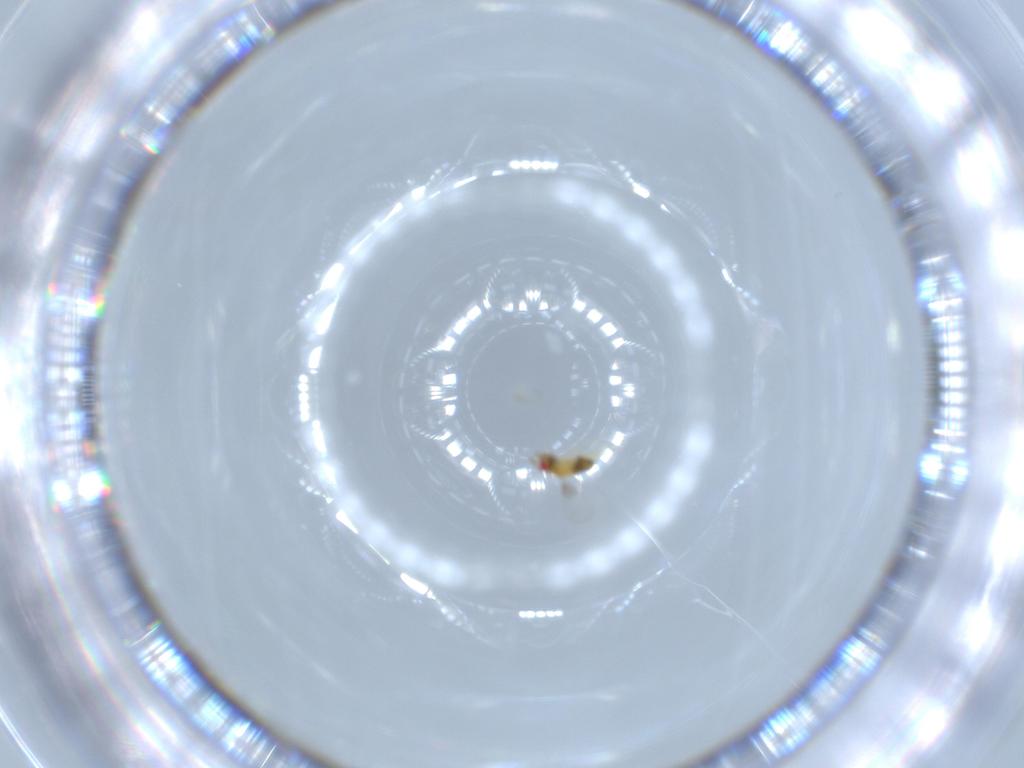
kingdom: Animalia
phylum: Arthropoda
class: Insecta
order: Hymenoptera
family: Trichogrammatidae
